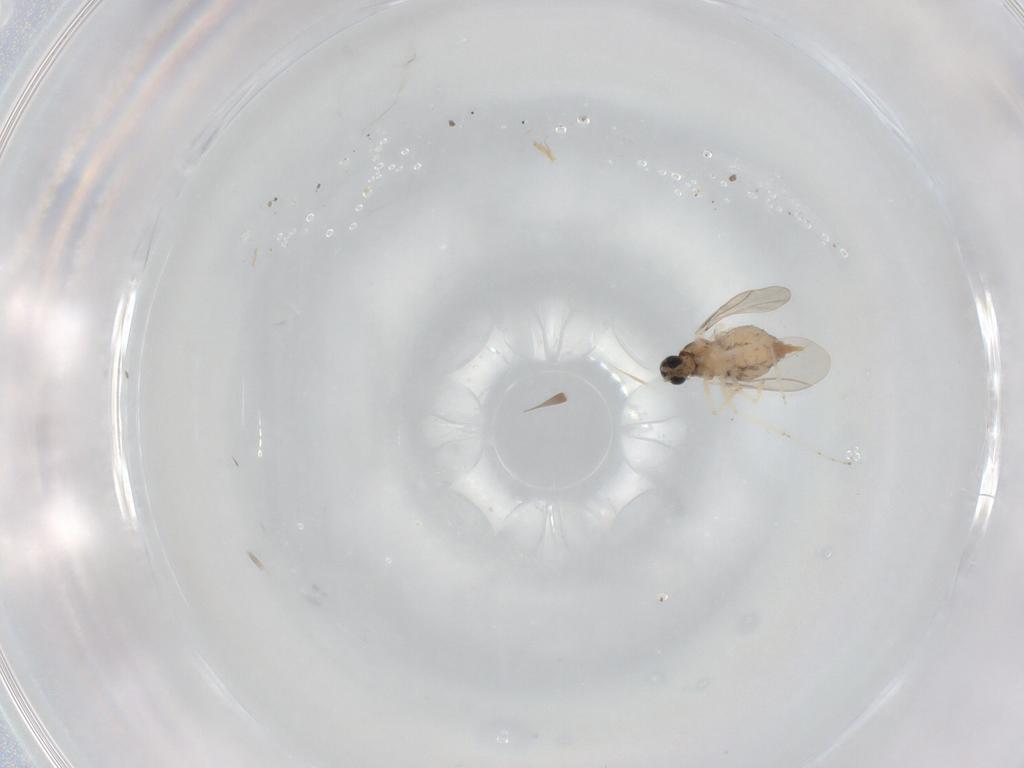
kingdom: Animalia
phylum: Arthropoda
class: Insecta
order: Diptera
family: Cecidomyiidae
